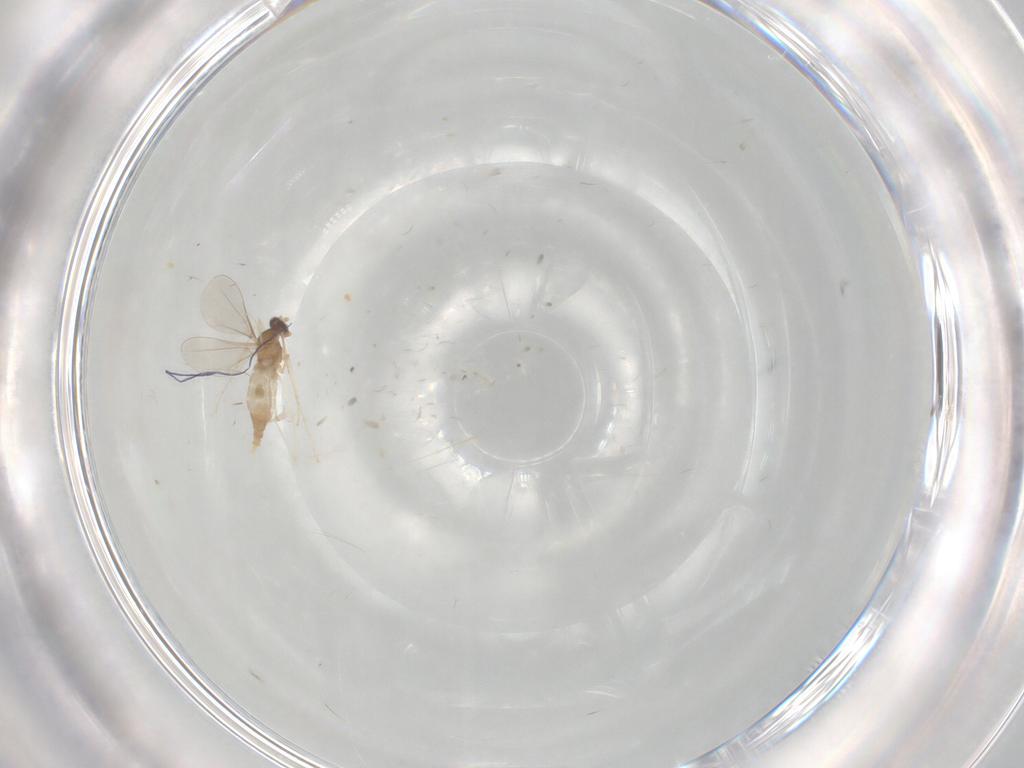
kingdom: Animalia
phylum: Arthropoda
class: Insecta
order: Diptera
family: Cecidomyiidae
